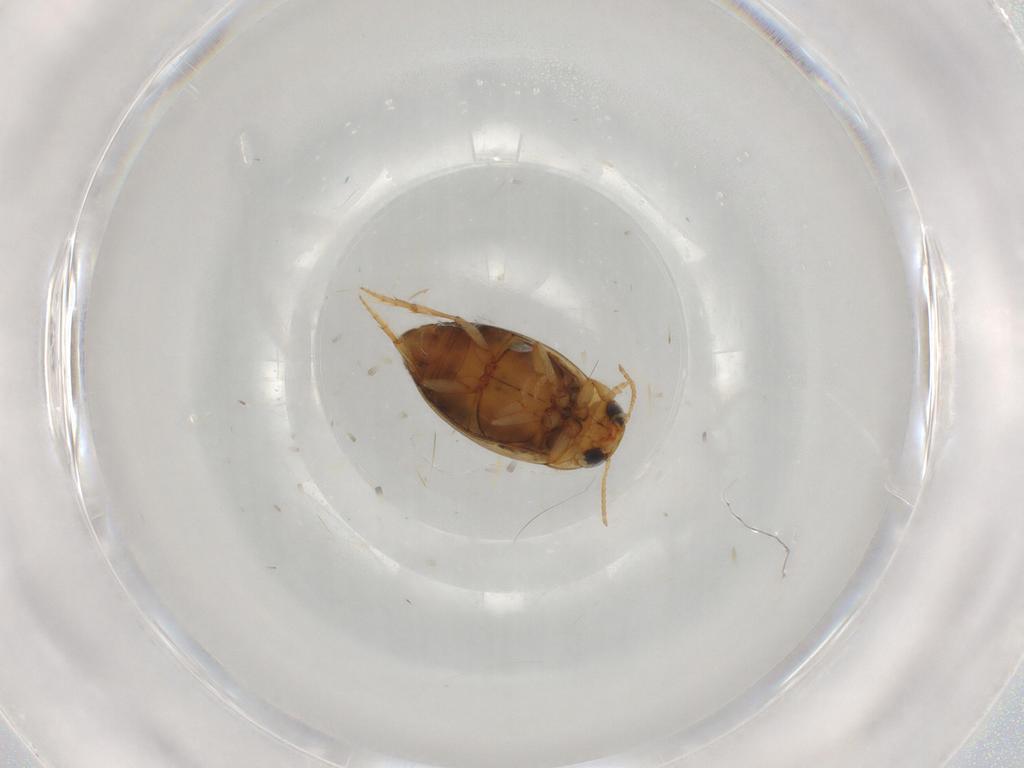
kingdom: Animalia
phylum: Arthropoda
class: Insecta
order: Coleoptera
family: Dytiscidae
